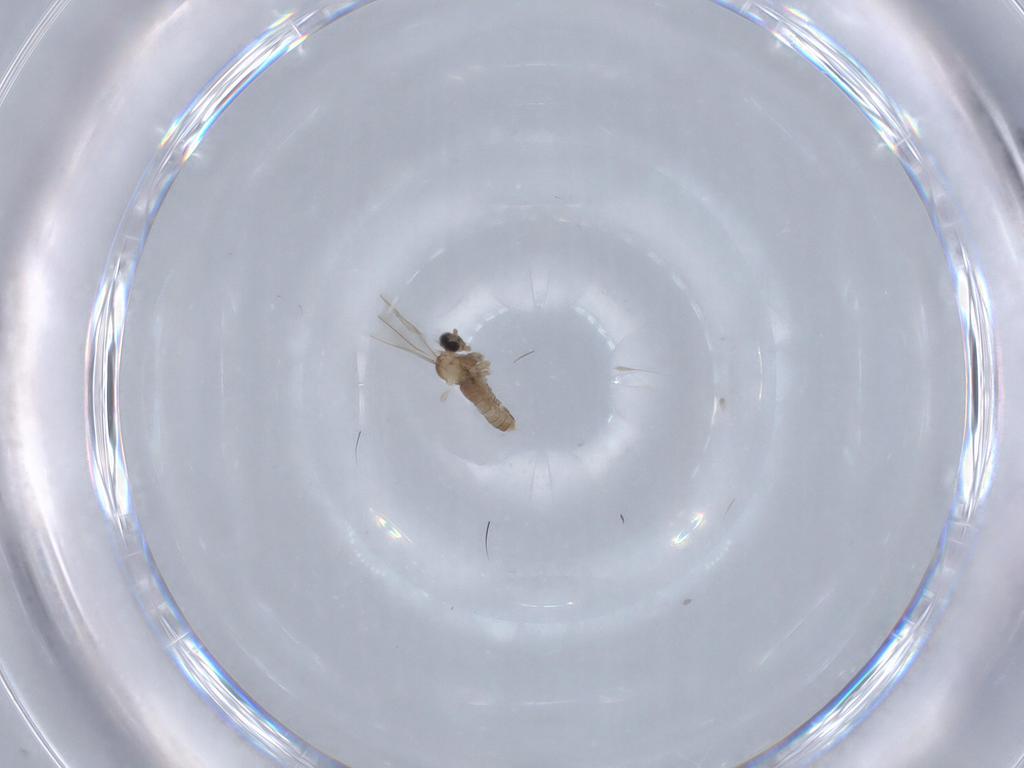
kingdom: Animalia
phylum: Arthropoda
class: Insecta
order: Diptera
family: Cecidomyiidae
